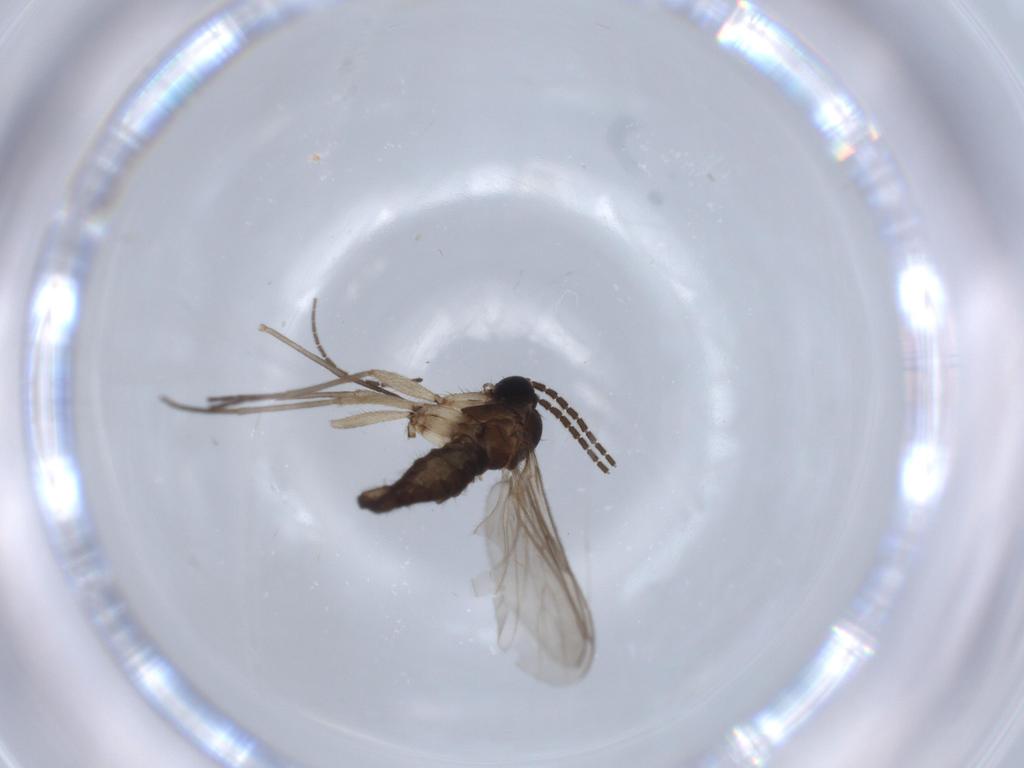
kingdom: Animalia
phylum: Arthropoda
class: Insecta
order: Diptera
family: Sciaridae
